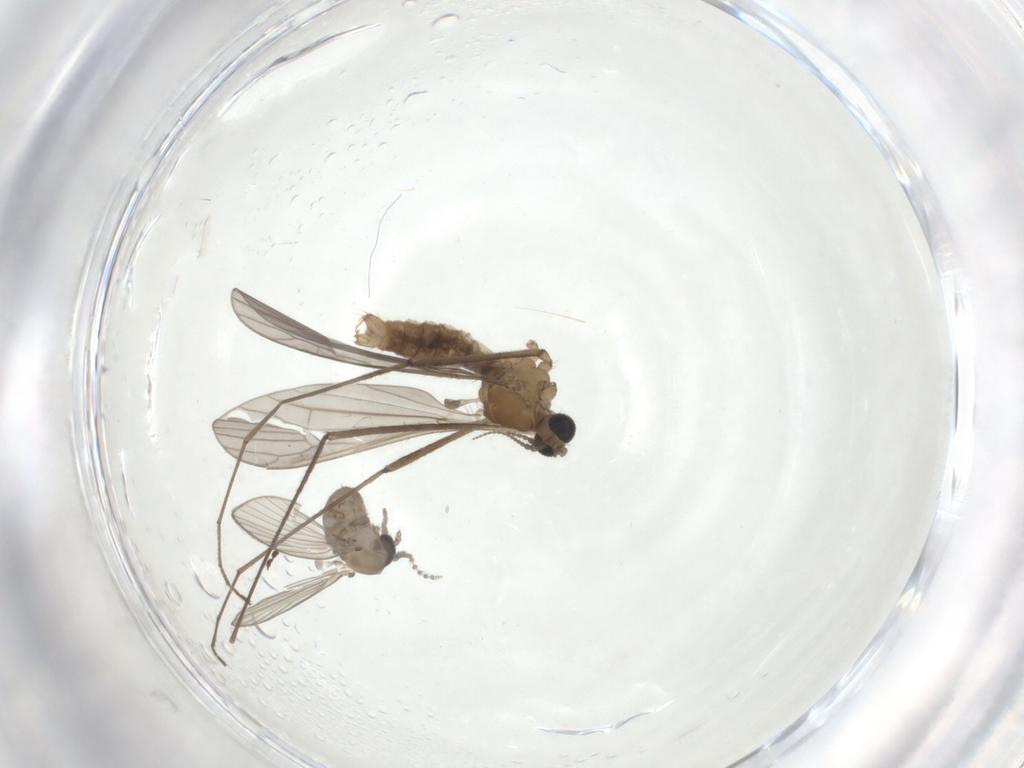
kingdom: Animalia
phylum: Arthropoda
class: Insecta
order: Diptera
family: Psychodidae
